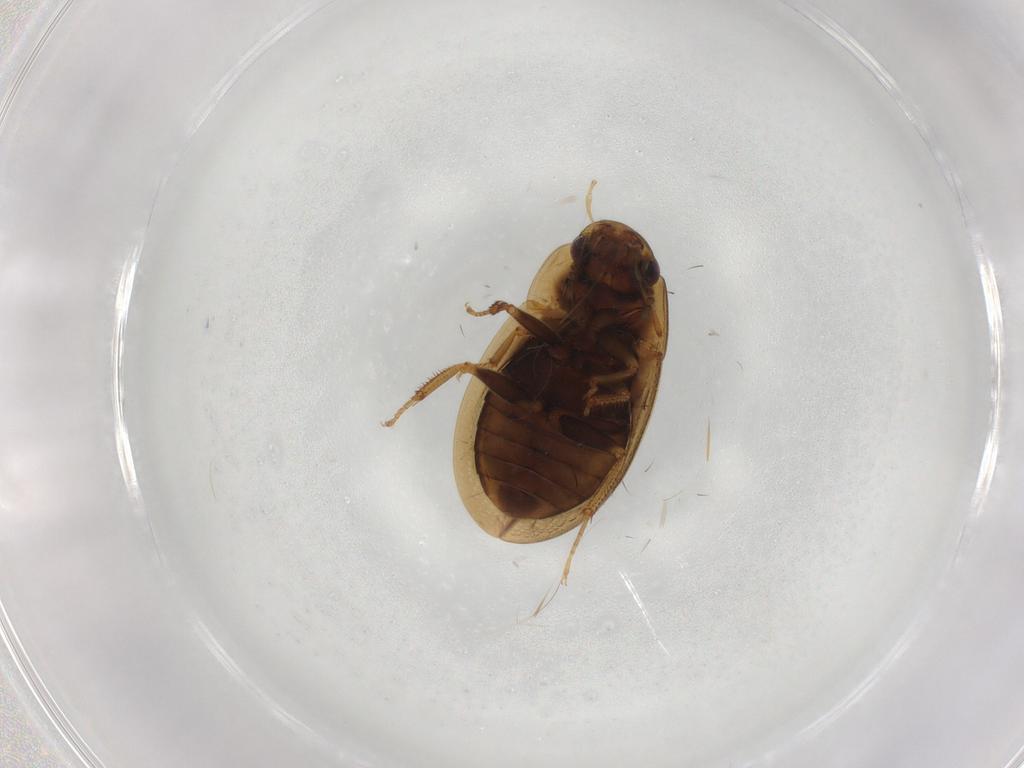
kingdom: Animalia
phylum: Arthropoda
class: Insecta
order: Coleoptera
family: Hydrophilidae
